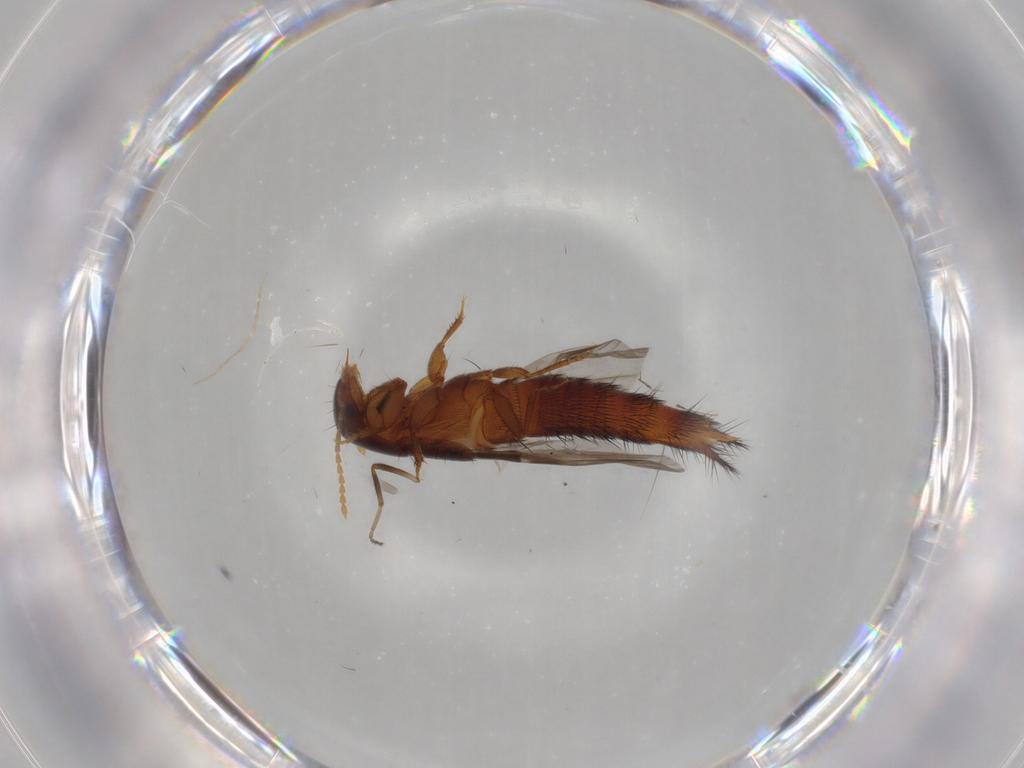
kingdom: Animalia
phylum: Arthropoda
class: Insecta
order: Coleoptera
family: Staphylinidae
